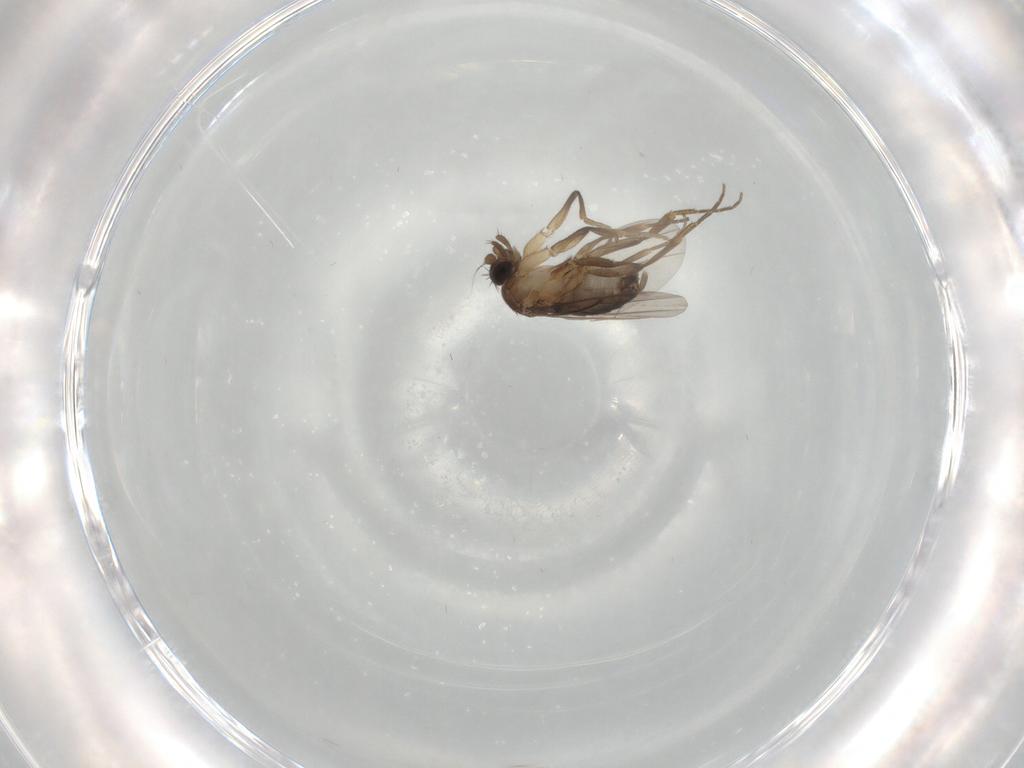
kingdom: Animalia
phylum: Arthropoda
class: Insecta
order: Diptera
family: Phoridae
